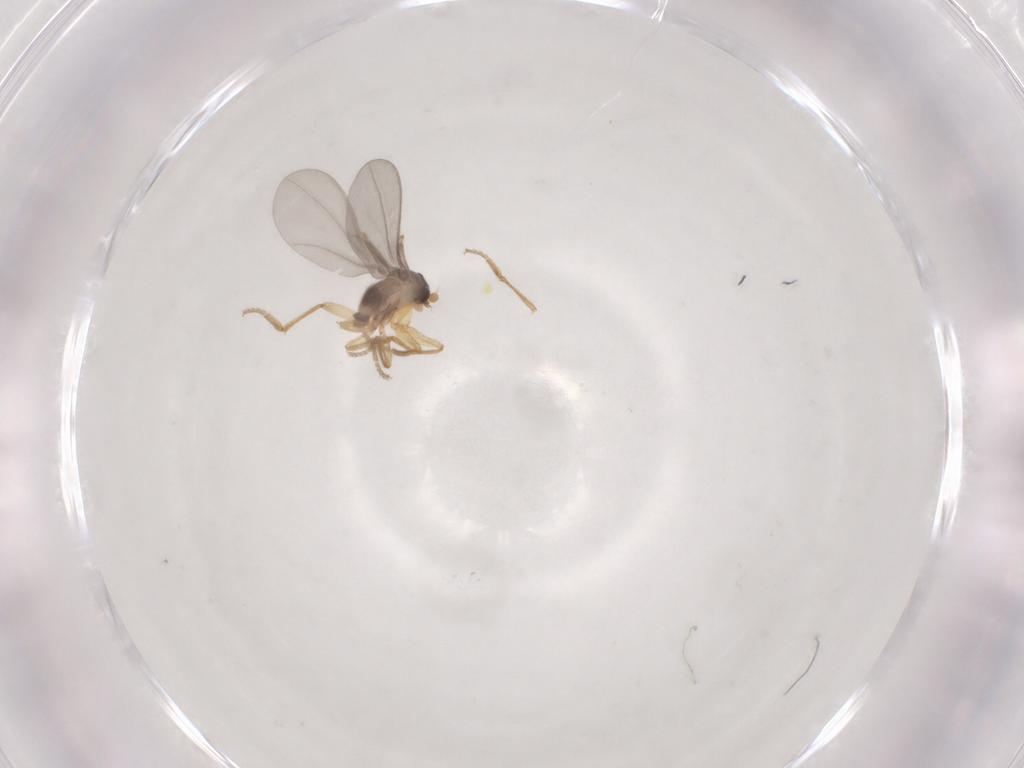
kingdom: Animalia
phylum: Arthropoda
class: Insecta
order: Diptera
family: Phoridae
